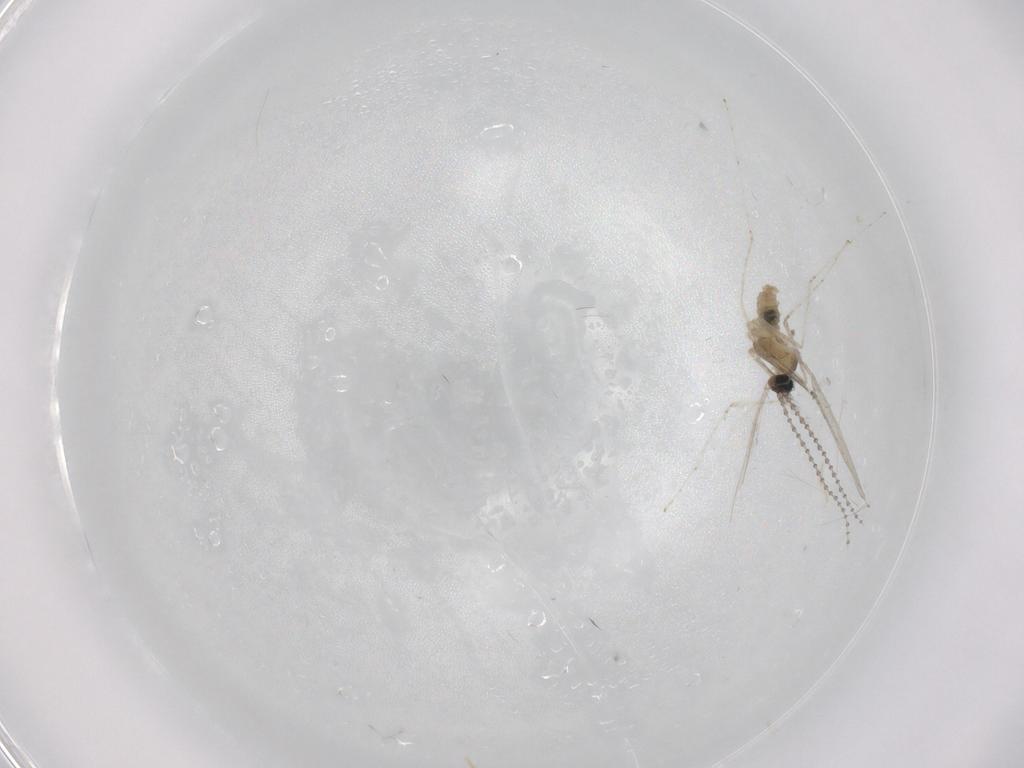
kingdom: Animalia
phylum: Arthropoda
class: Insecta
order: Diptera
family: Cecidomyiidae
